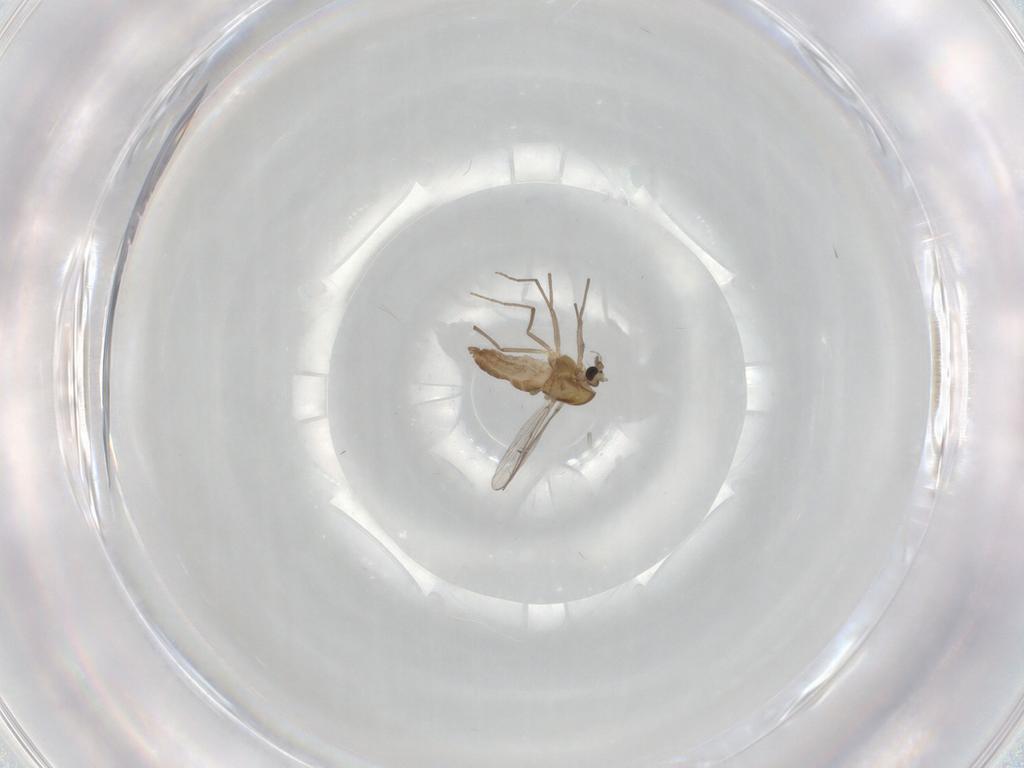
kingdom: Animalia
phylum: Arthropoda
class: Insecta
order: Diptera
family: Chironomidae
